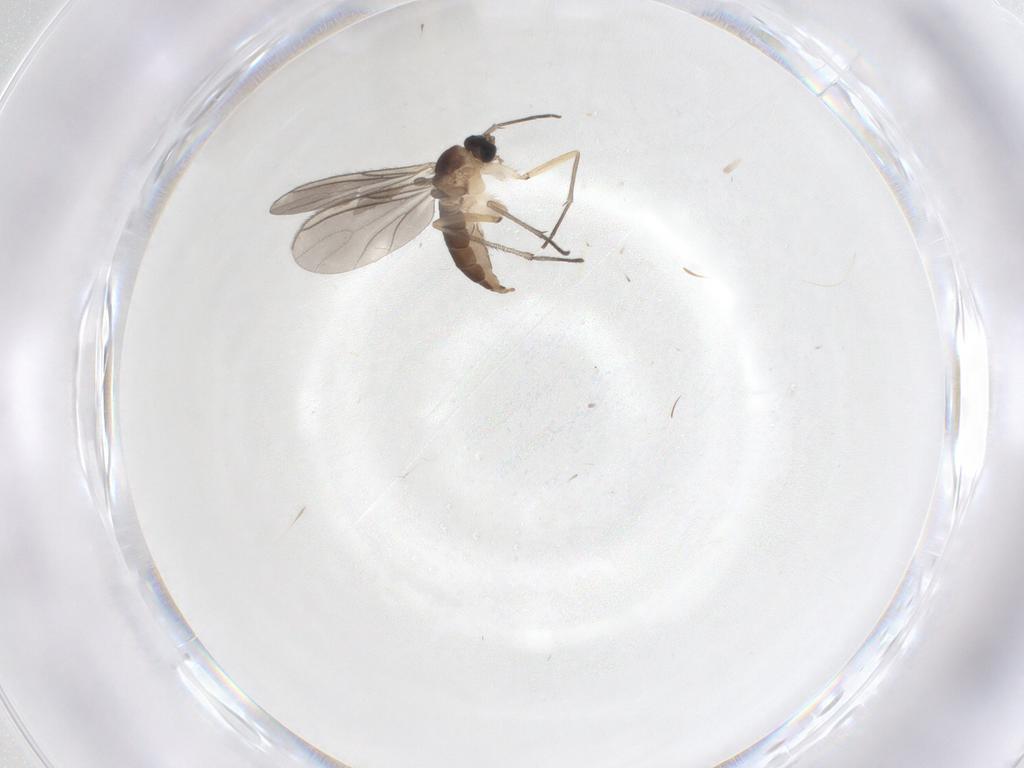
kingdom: Animalia
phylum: Arthropoda
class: Insecta
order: Diptera
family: Sciaridae
